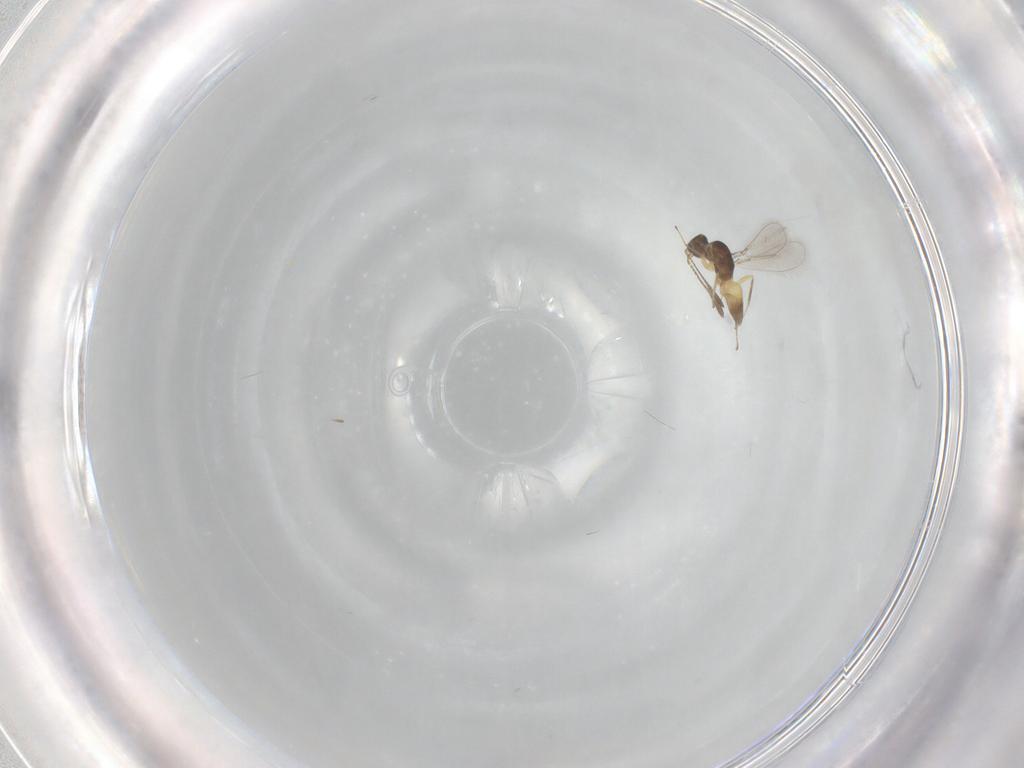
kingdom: Animalia
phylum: Arthropoda
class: Insecta
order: Hymenoptera
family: Mymaridae
